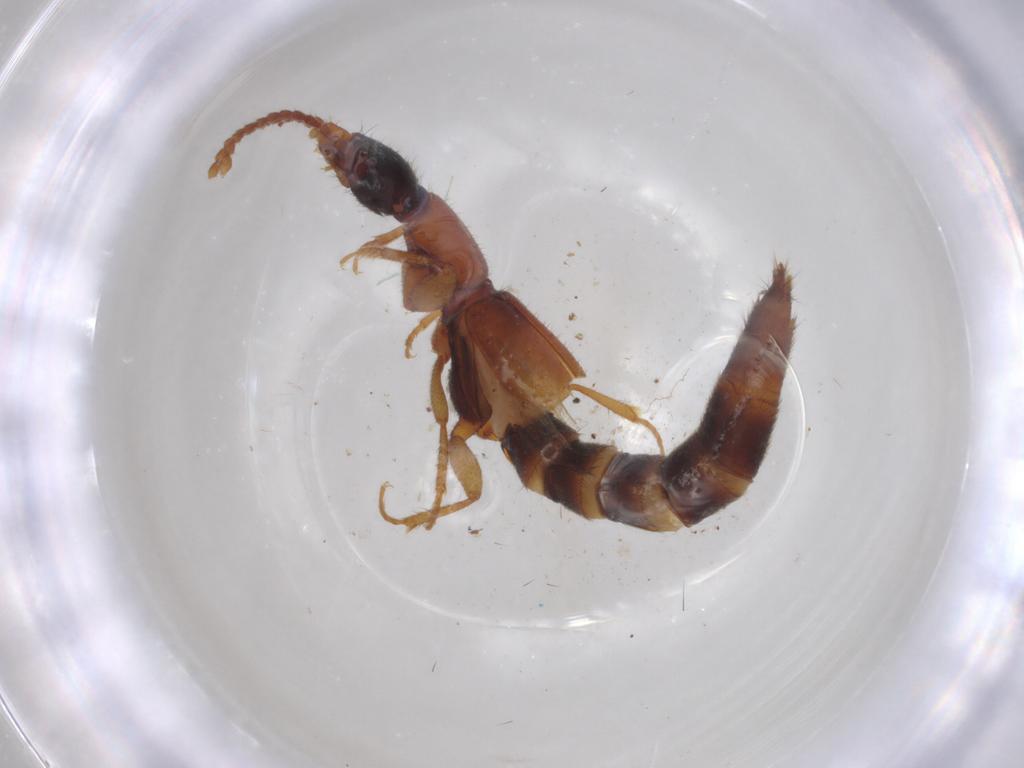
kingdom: Animalia
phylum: Arthropoda
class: Insecta
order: Coleoptera
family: Staphylinidae
